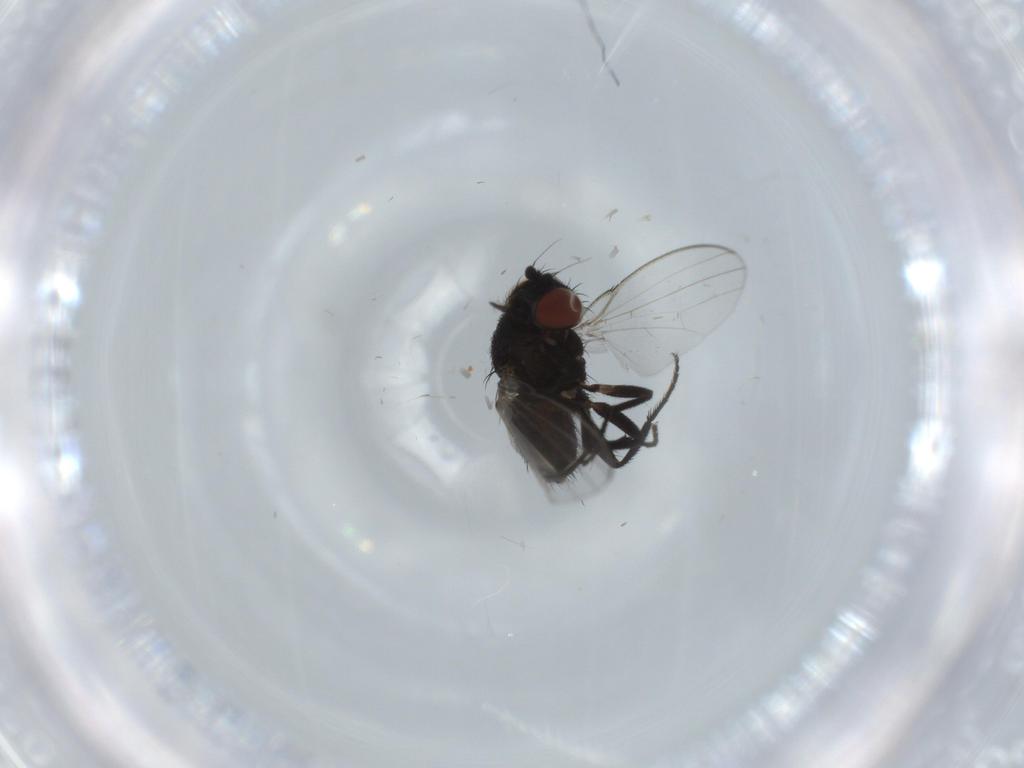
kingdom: Animalia
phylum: Arthropoda
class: Insecta
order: Diptera
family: Milichiidae
